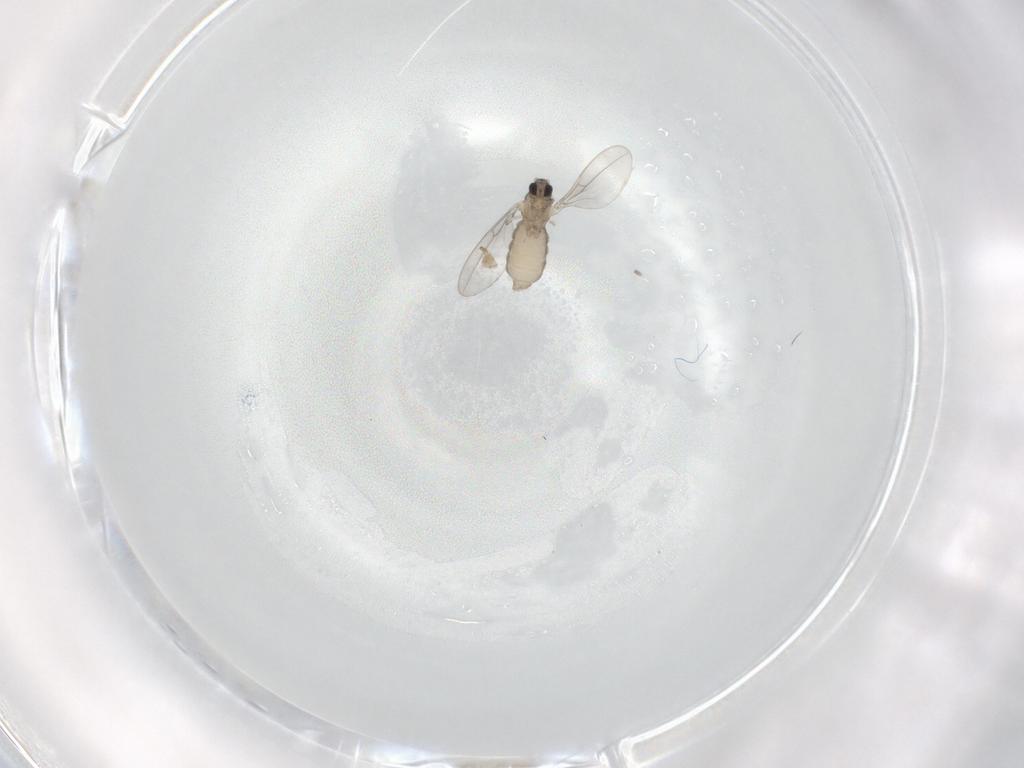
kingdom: Animalia
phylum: Arthropoda
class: Insecta
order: Diptera
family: Cecidomyiidae
